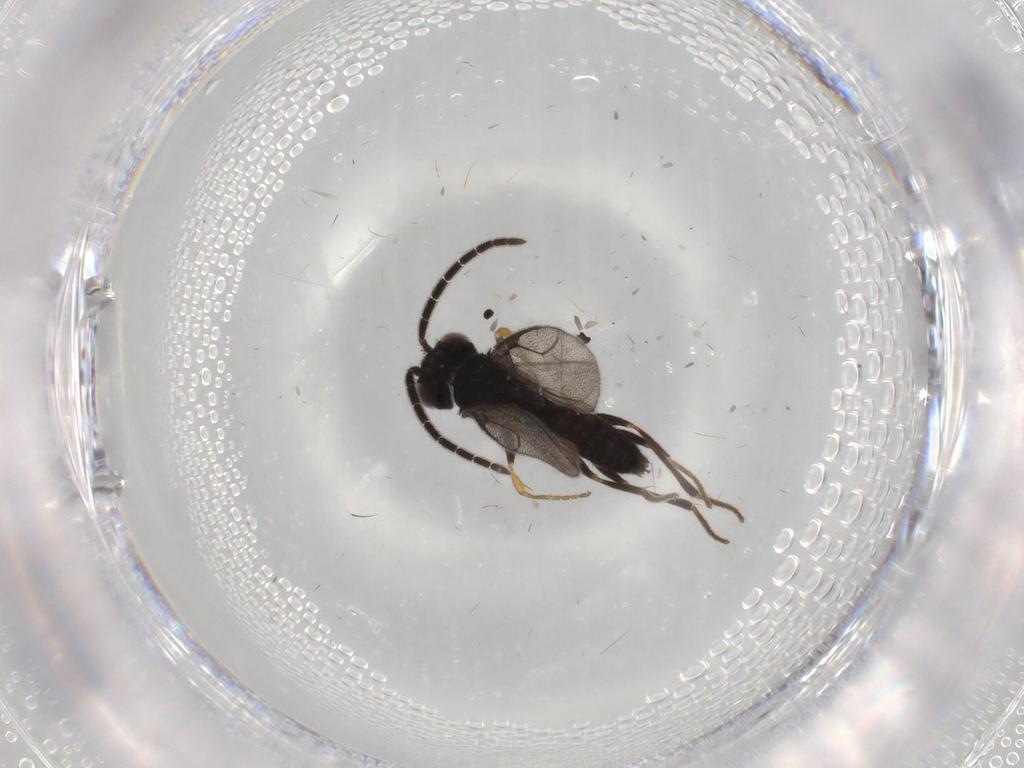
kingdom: Animalia
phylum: Arthropoda
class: Insecta
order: Hymenoptera
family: Dryinidae
